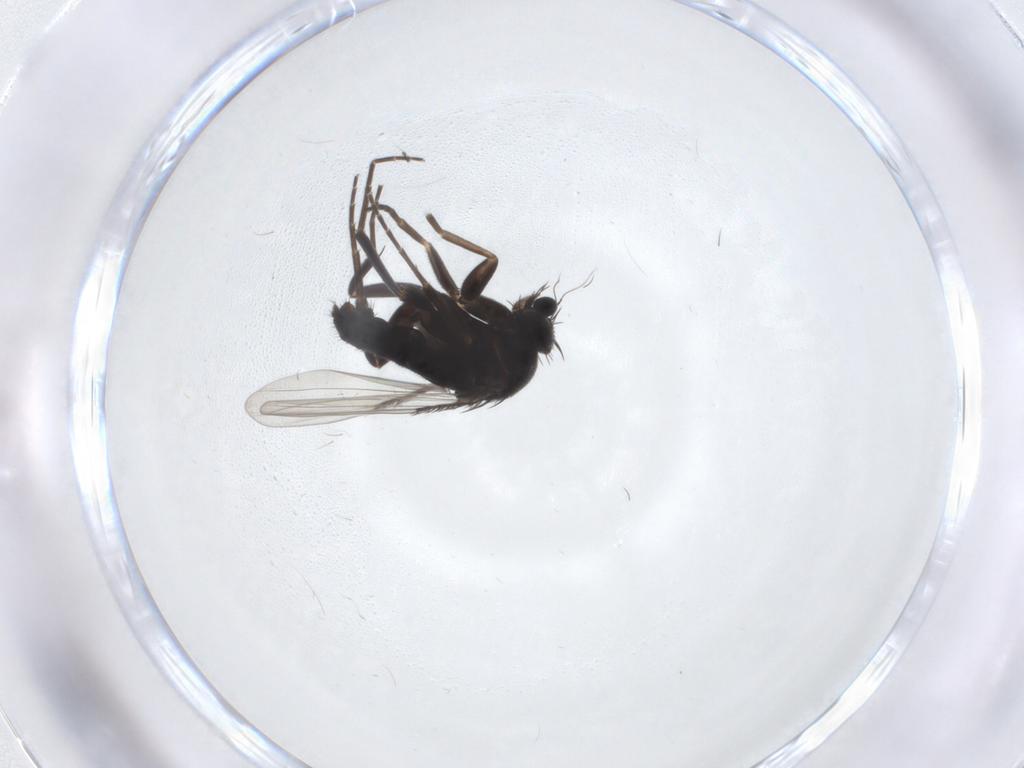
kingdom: Animalia
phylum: Arthropoda
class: Insecta
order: Diptera
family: Phoridae
